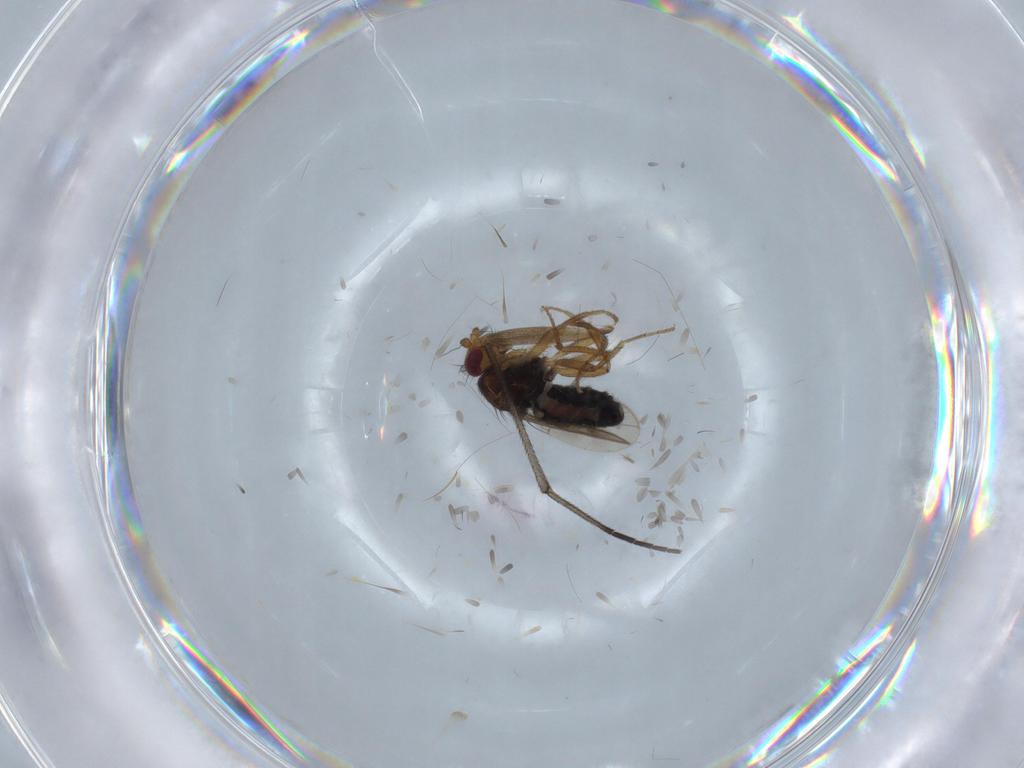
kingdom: Animalia
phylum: Arthropoda
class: Insecta
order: Diptera
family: Sphaeroceridae
